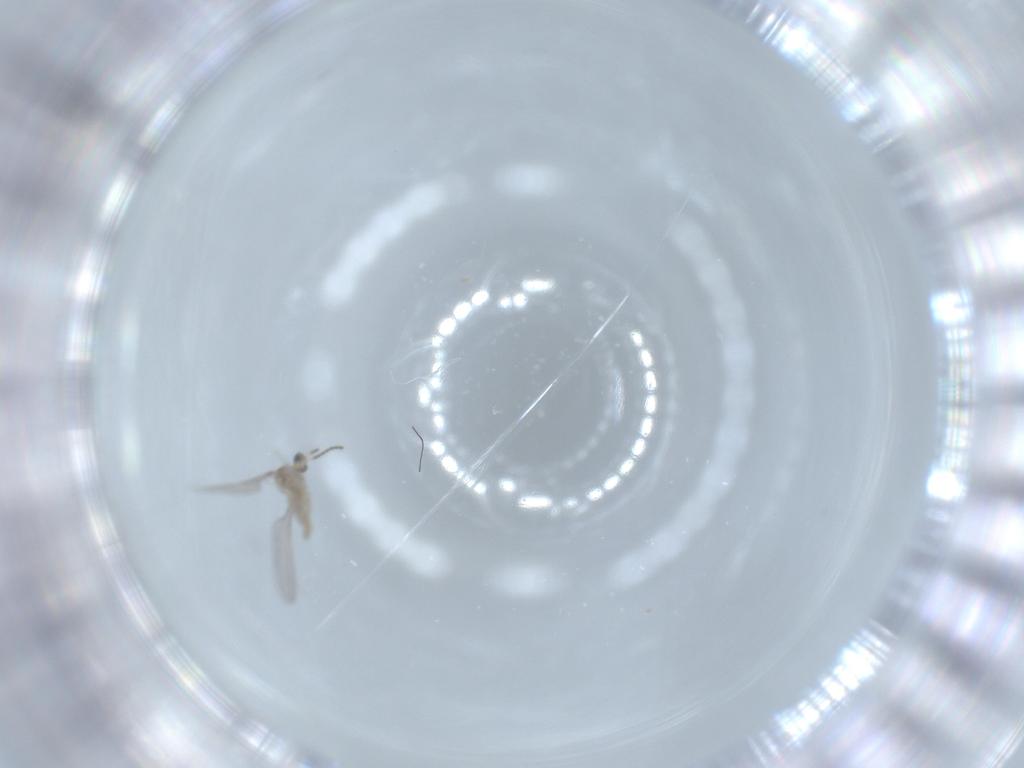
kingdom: Animalia
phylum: Arthropoda
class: Insecta
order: Diptera
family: Cecidomyiidae
